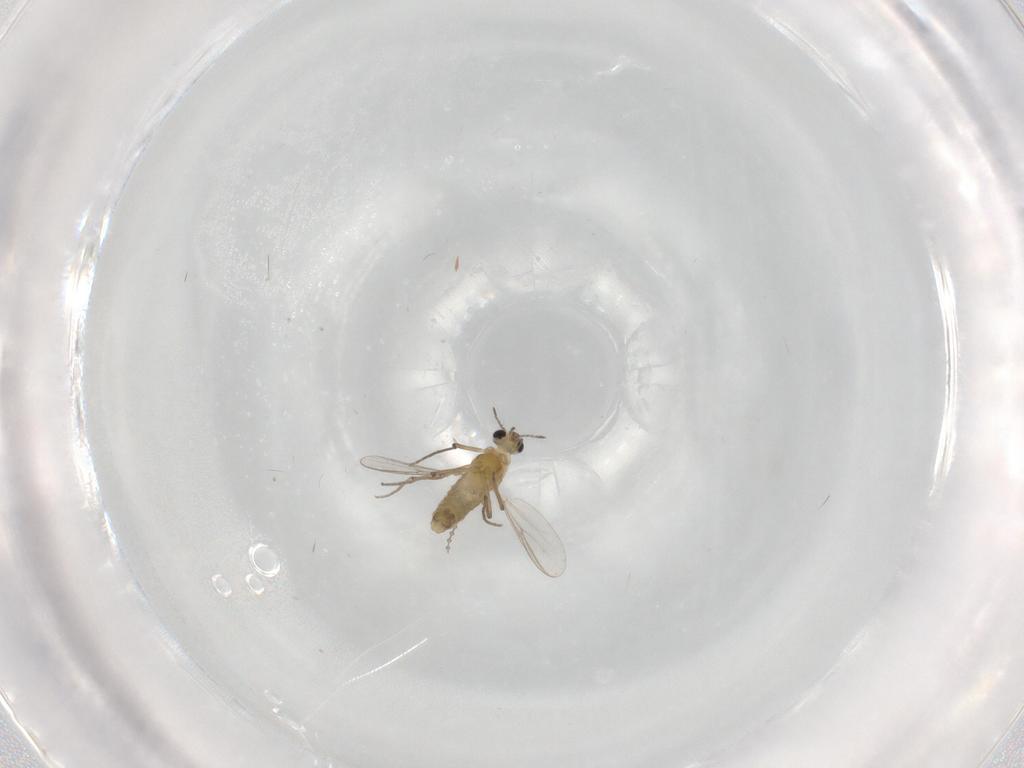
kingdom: Animalia
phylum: Arthropoda
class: Insecta
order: Diptera
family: Chironomidae
